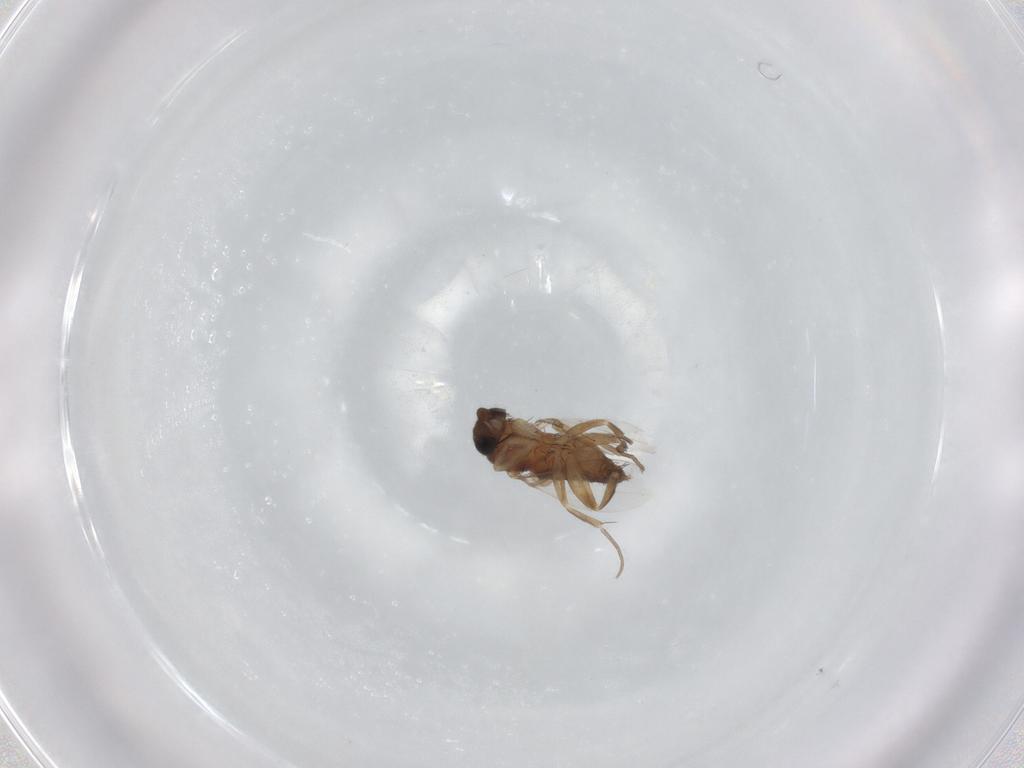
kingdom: Animalia
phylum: Arthropoda
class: Insecta
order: Diptera
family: Phoridae
